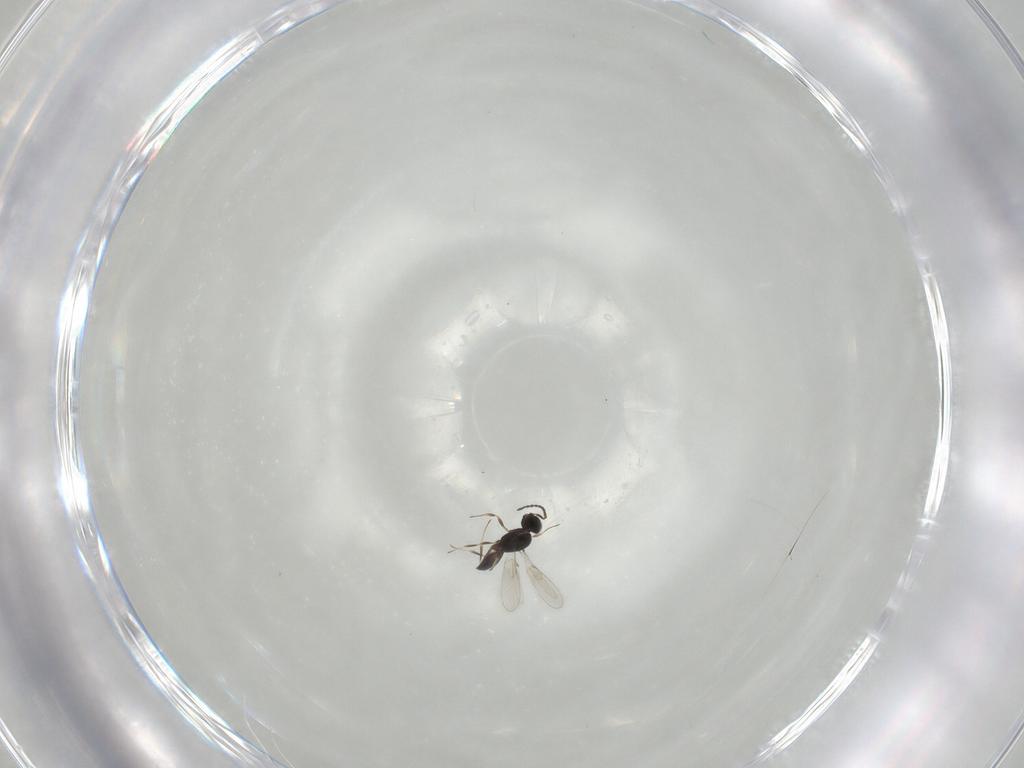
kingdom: Animalia
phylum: Arthropoda
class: Insecta
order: Hymenoptera
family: Scelionidae
